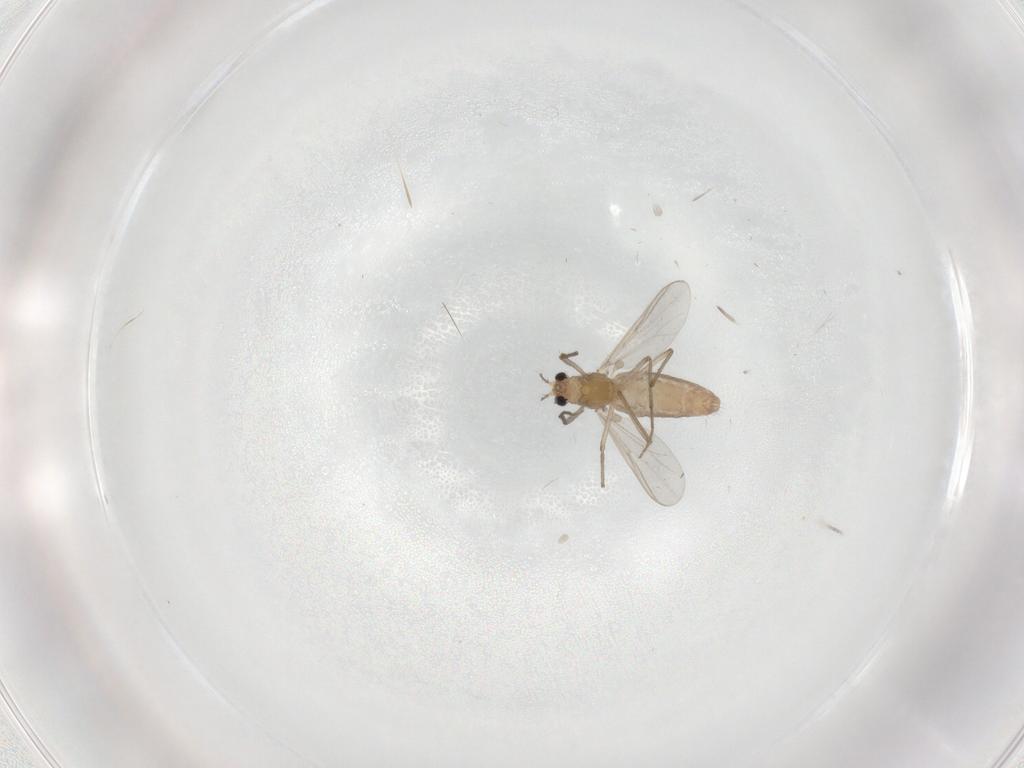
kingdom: Animalia
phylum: Arthropoda
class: Insecta
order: Diptera
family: Chironomidae
